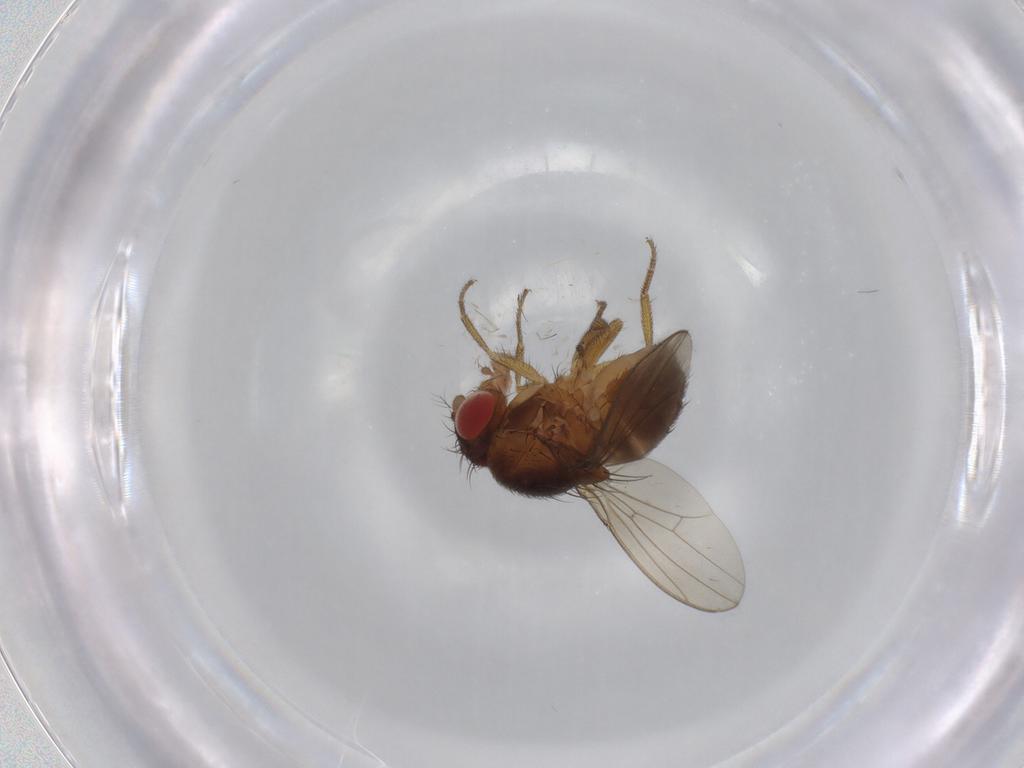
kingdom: Animalia
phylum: Arthropoda
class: Insecta
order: Diptera
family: Drosophilidae
